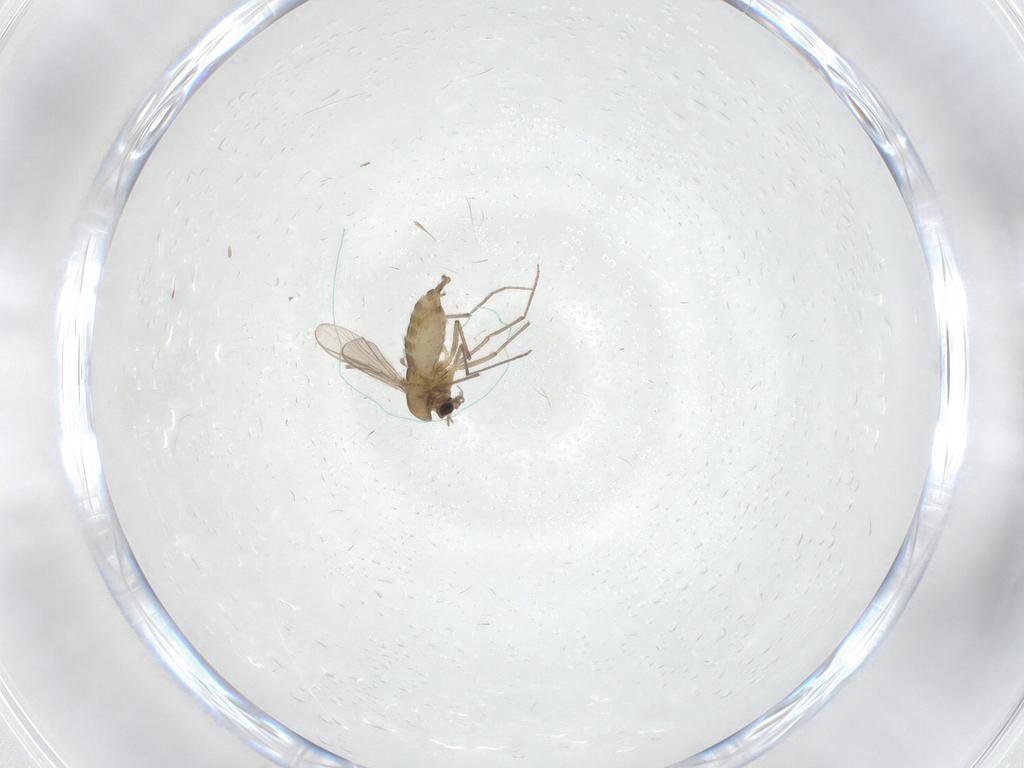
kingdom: Animalia
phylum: Arthropoda
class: Insecta
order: Diptera
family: Chironomidae
